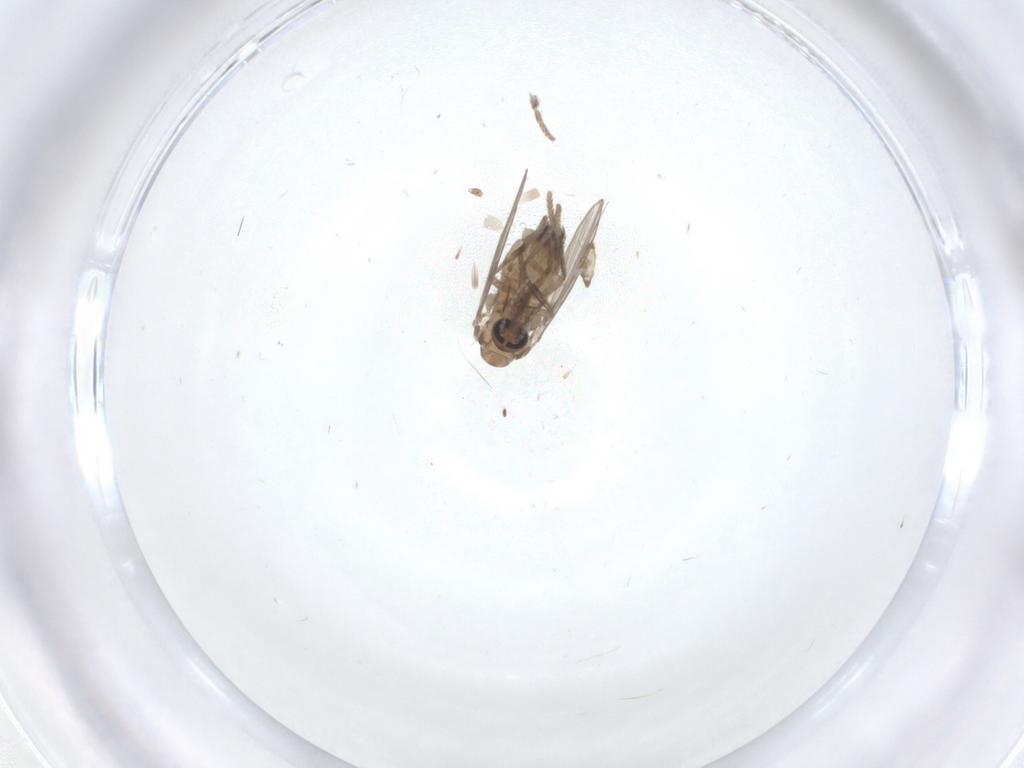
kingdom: Animalia
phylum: Arthropoda
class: Insecta
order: Diptera
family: Psychodidae
